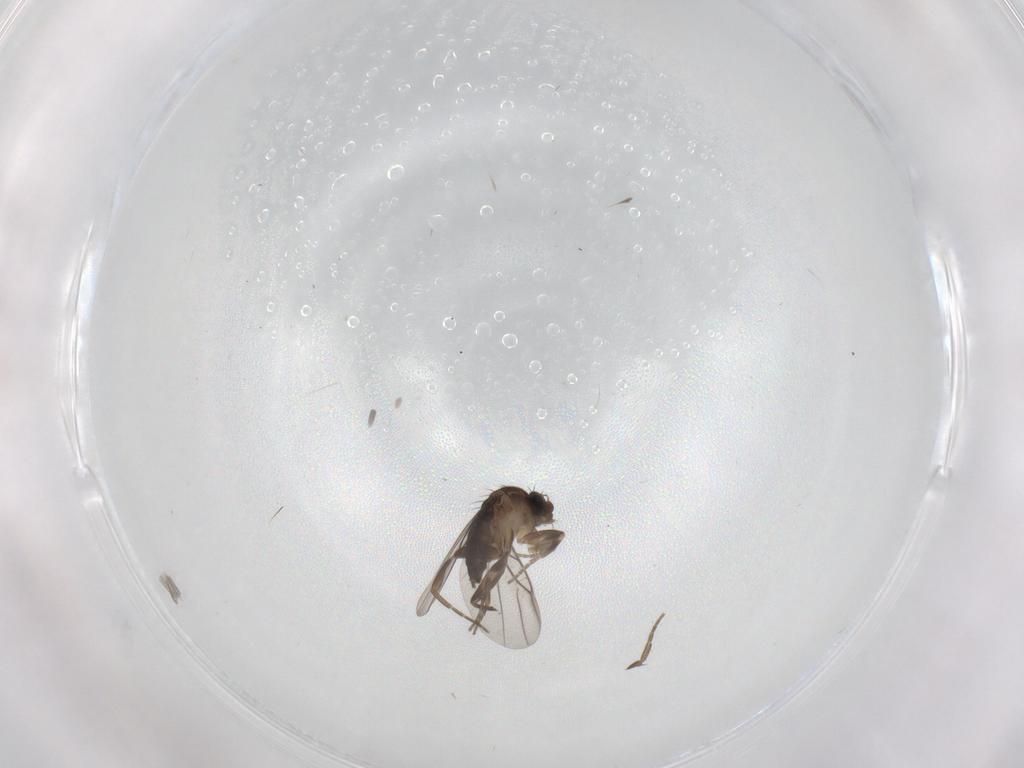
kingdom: Animalia
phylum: Arthropoda
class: Insecta
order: Diptera
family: Sciaridae
